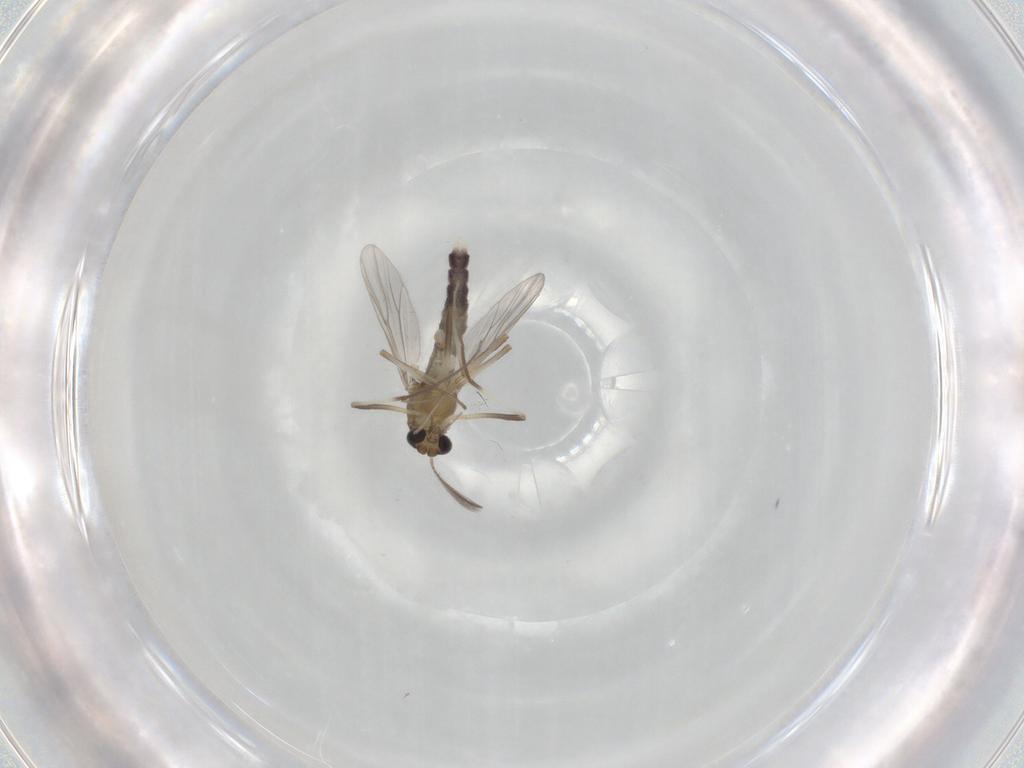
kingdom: Animalia
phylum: Arthropoda
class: Insecta
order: Diptera
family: Chironomidae
